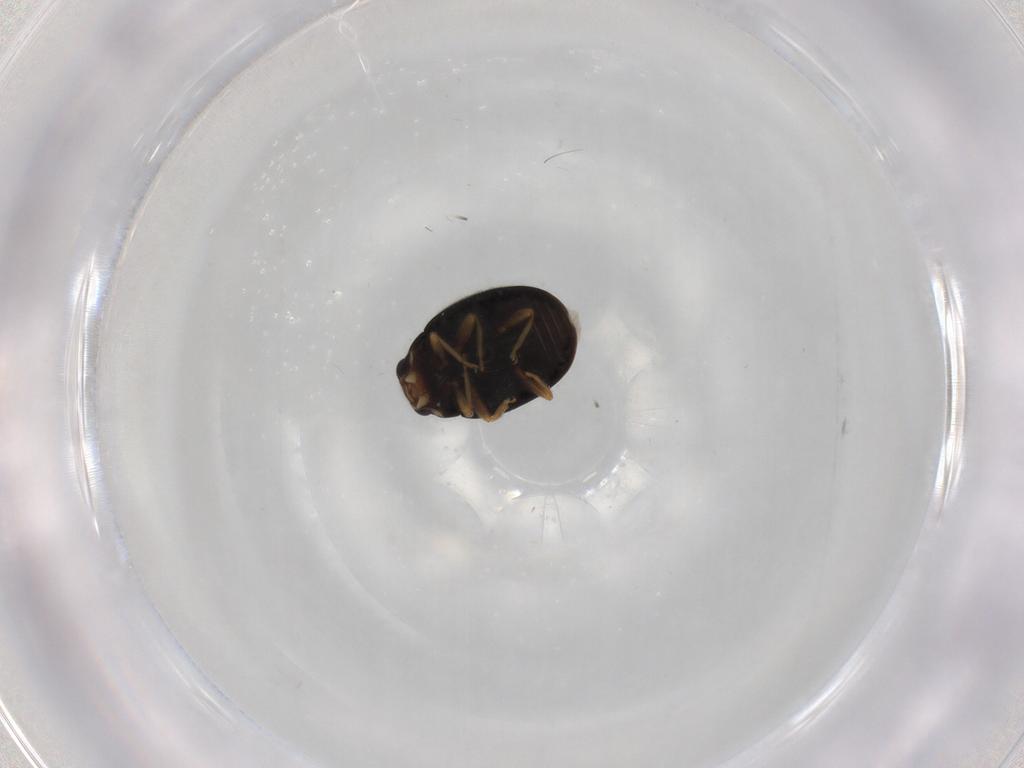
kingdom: Animalia
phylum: Arthropoda
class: Insecta
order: Coleoptera
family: Coccinellidae
